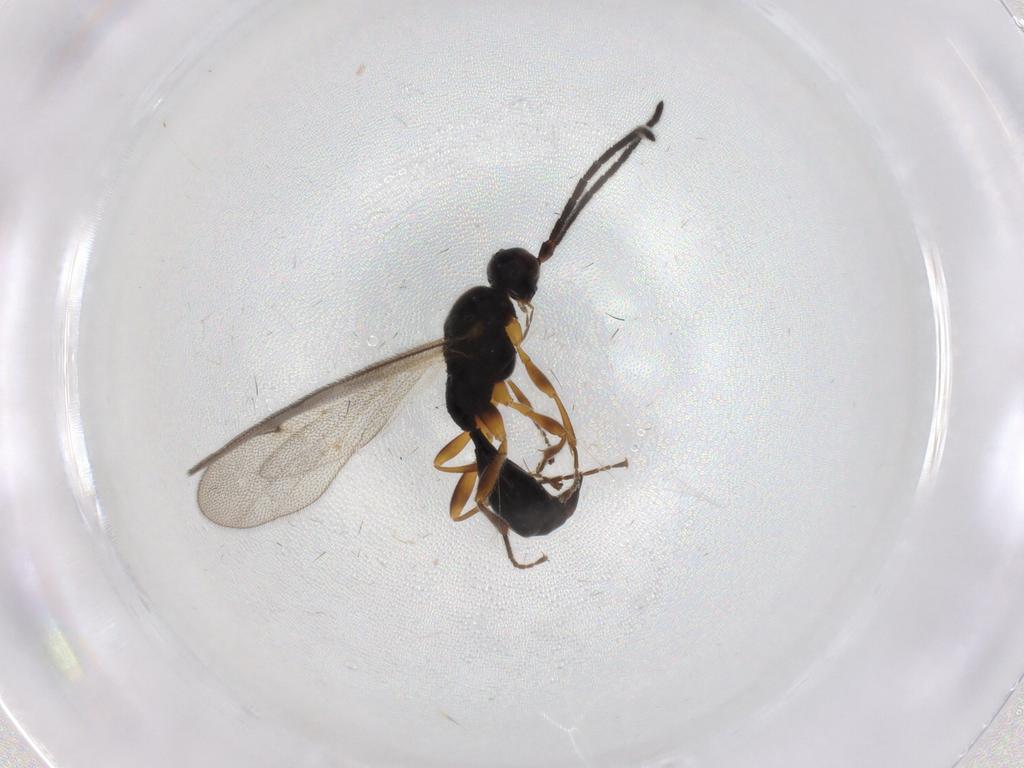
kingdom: Animalia
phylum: Arthropoda
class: Insecta
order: Hymenoptera
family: Proctotrupidae
